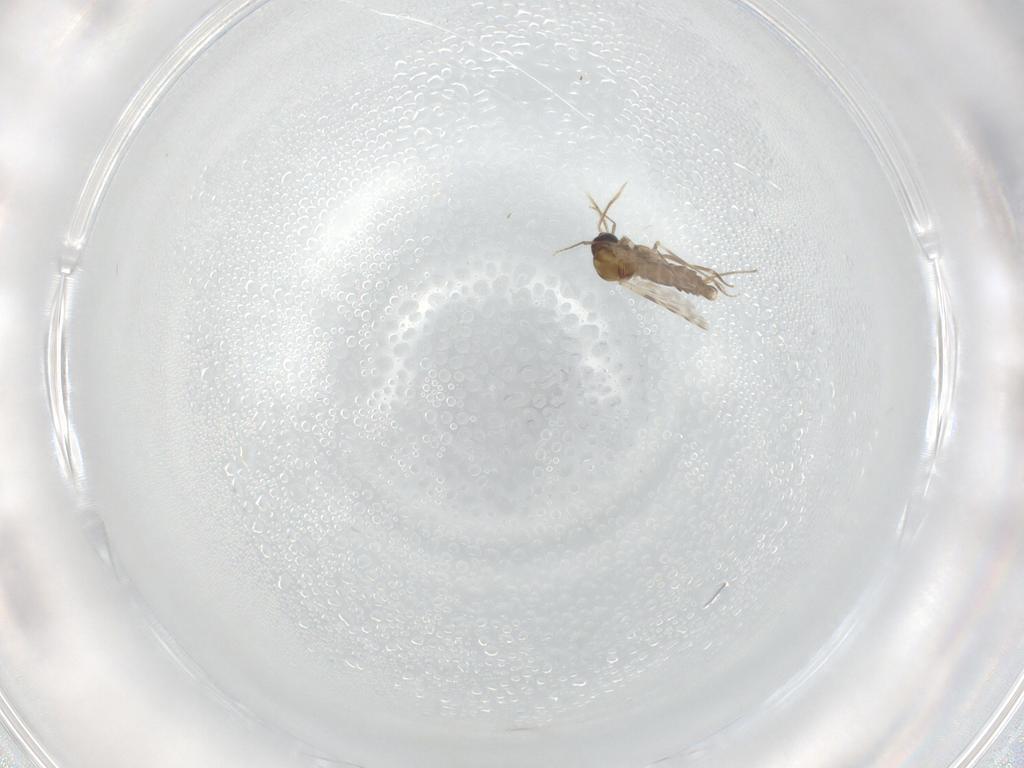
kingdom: Animalia
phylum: Arthropoda
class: Insecta
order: Diptera
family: Ceratopogonidae
